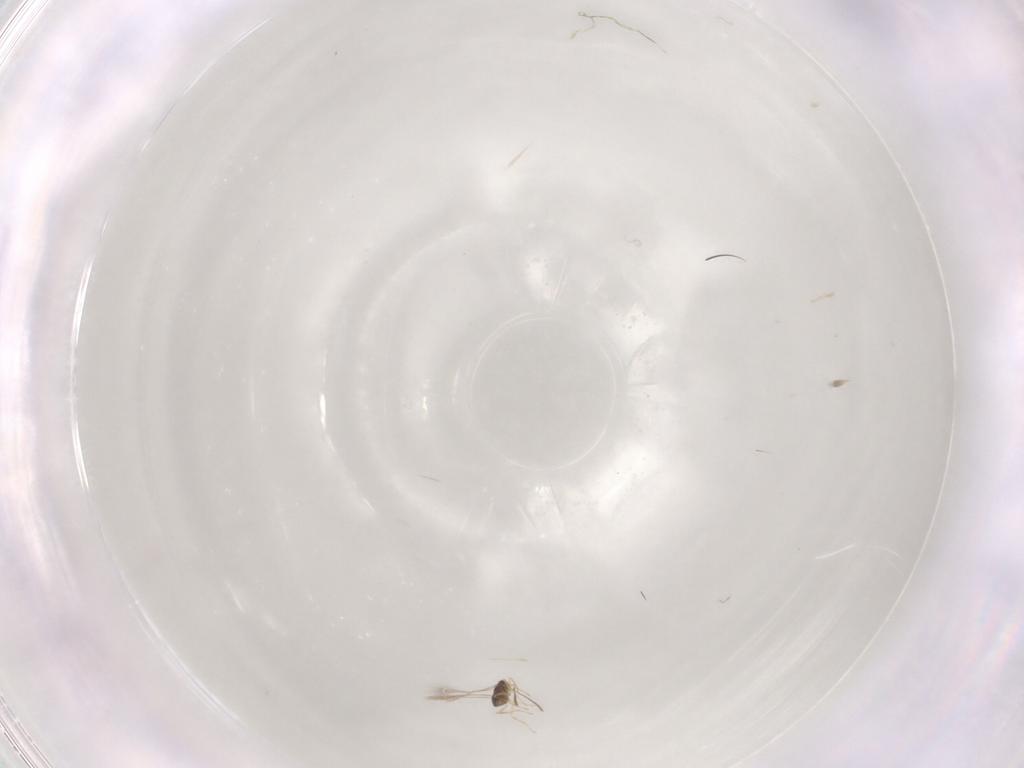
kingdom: Animalia
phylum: Arthropoda
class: Insecta
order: Hymenoptera
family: Mymaridae
